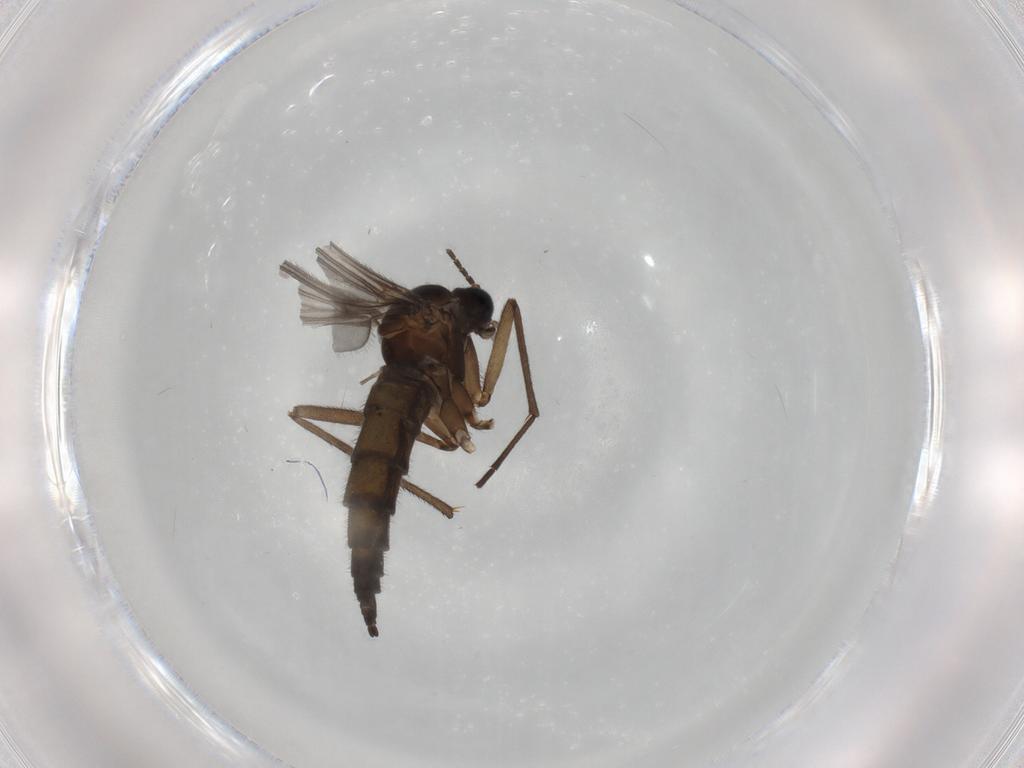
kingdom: Animalia
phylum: Arthropoda
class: Insecta
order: Diptera
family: Sciaridae
